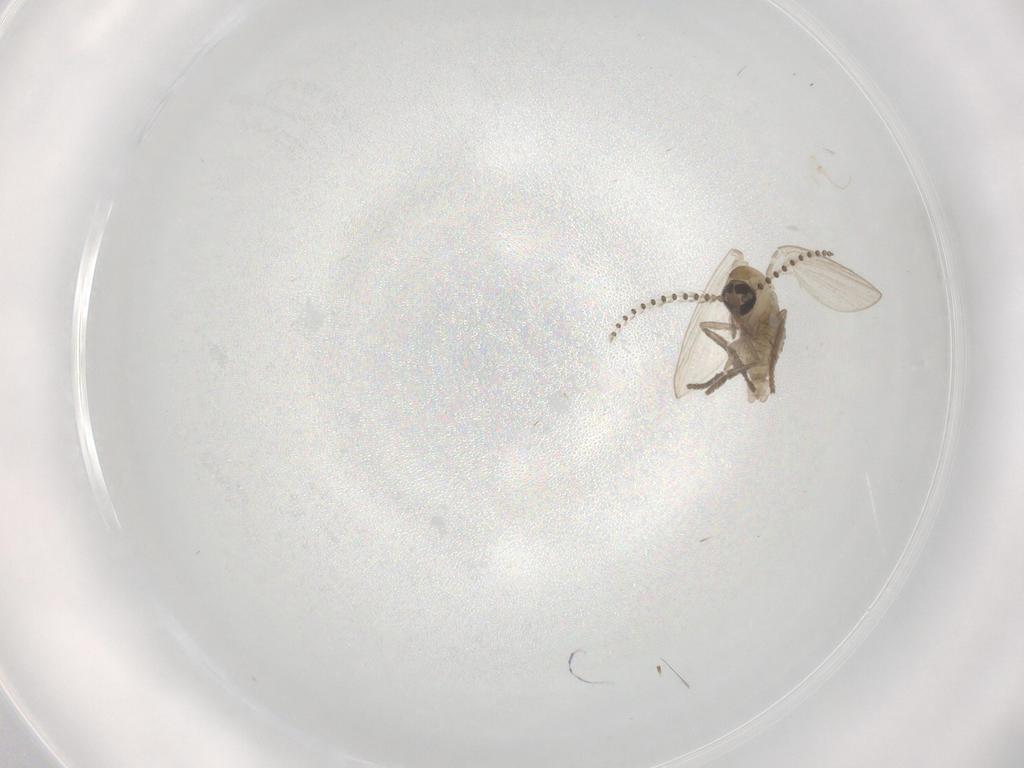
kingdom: Animalia
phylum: Arthropoda
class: Insecta
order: Diptera
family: Psychodidae
